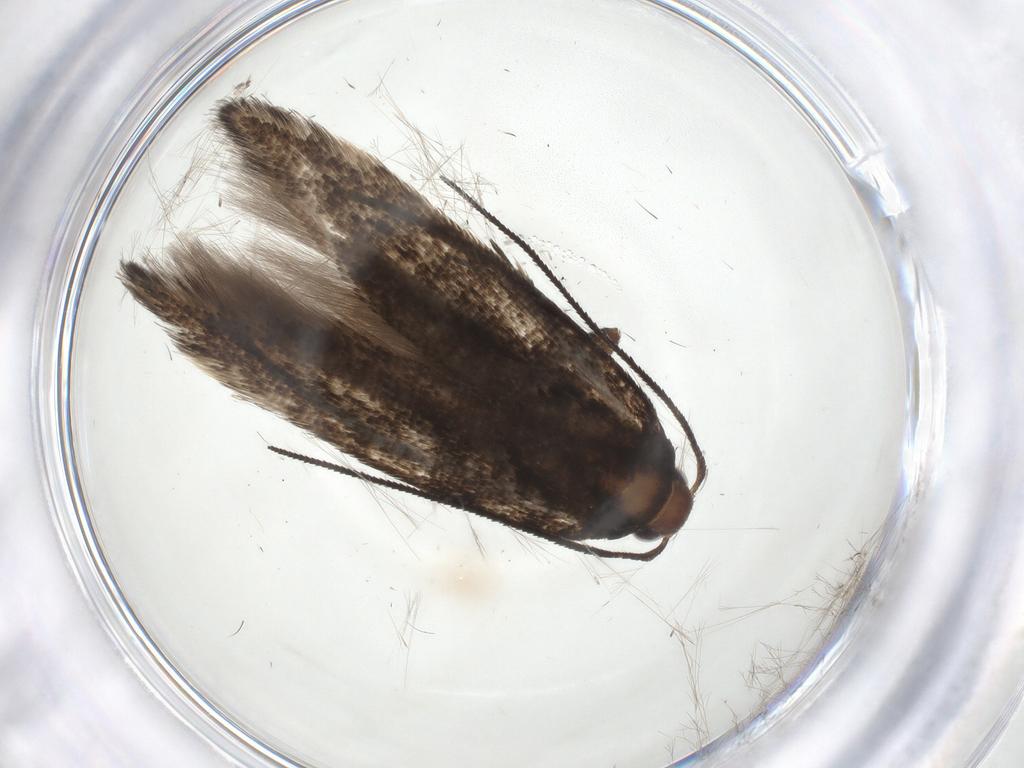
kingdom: Animalia
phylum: Arthropoda
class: Insecta
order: Lepidoptera
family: Gelechiidae
